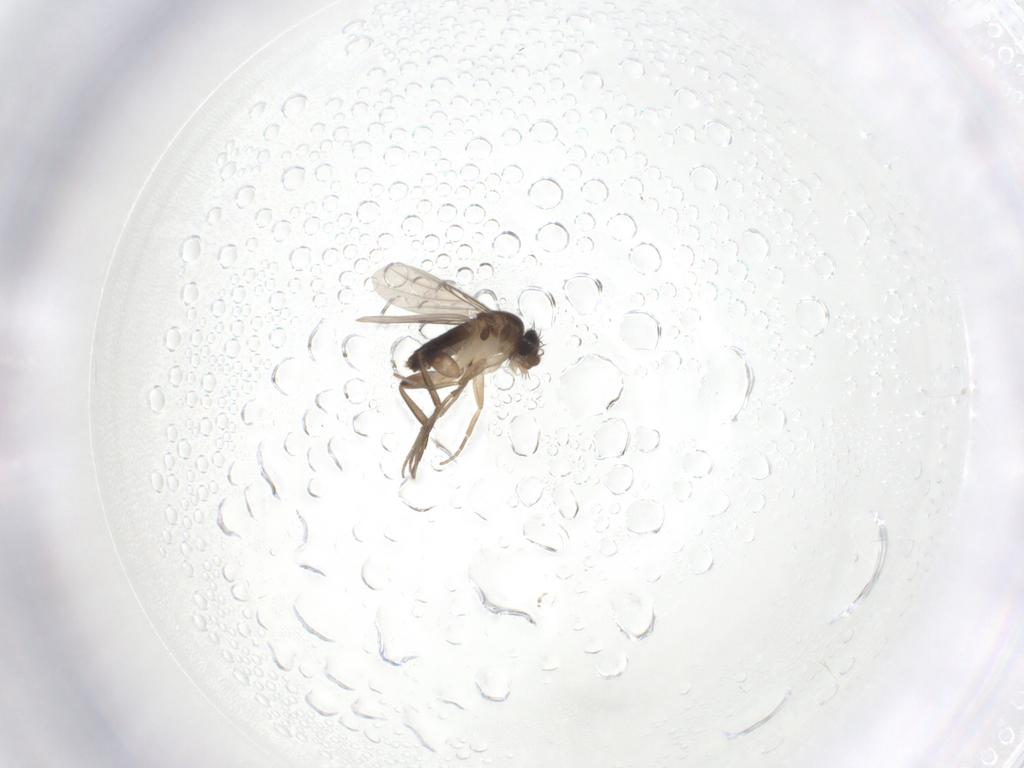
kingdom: Animalia
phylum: Arthropoda
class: Insecta
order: Diptera
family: Phoridae
